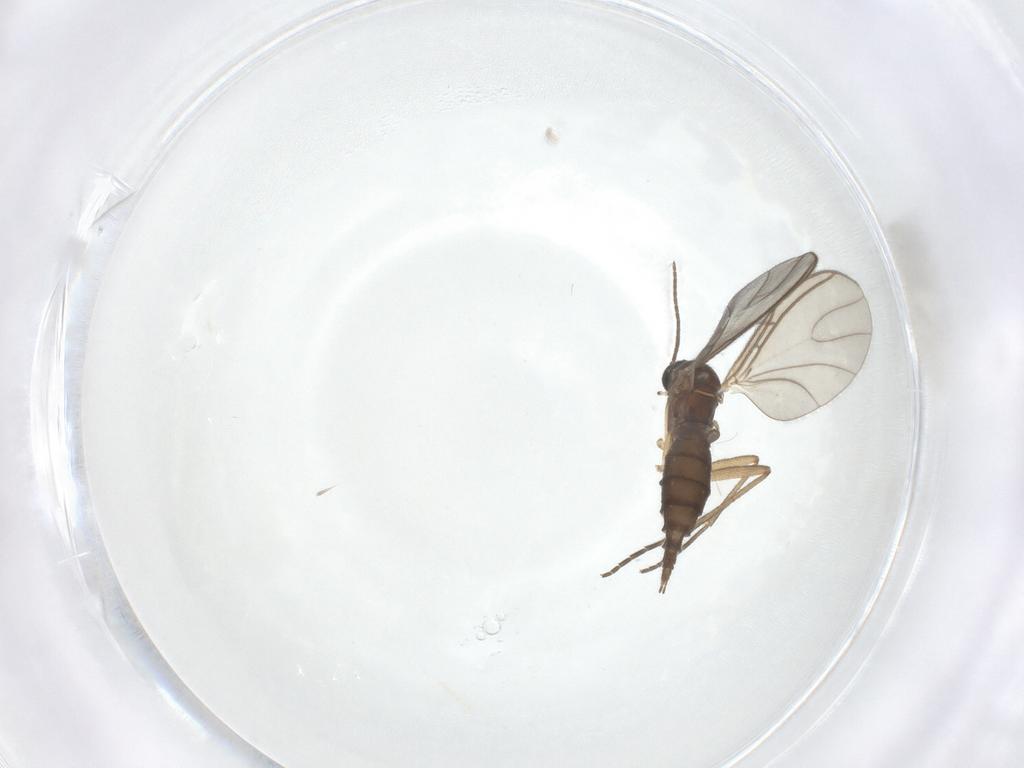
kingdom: Animalia
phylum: Arthropoda
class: Insecta
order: Diptera
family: Sciaridae
